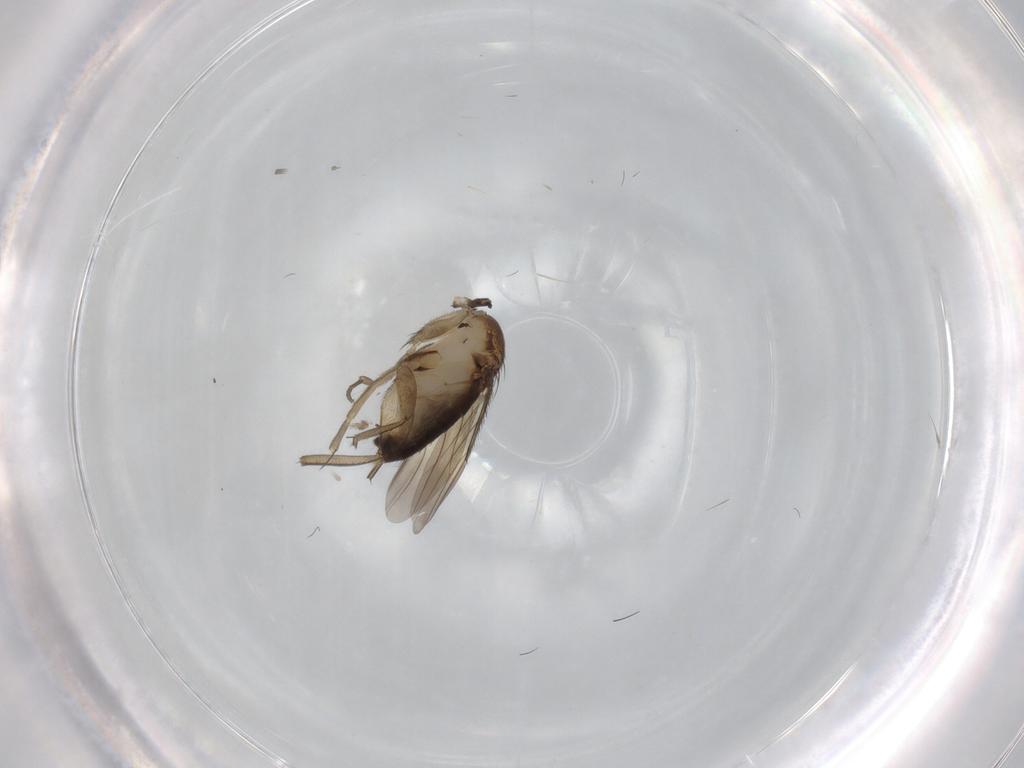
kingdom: Animalia
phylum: Arthropoda
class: Insecta
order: Diptera
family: Phoridae
